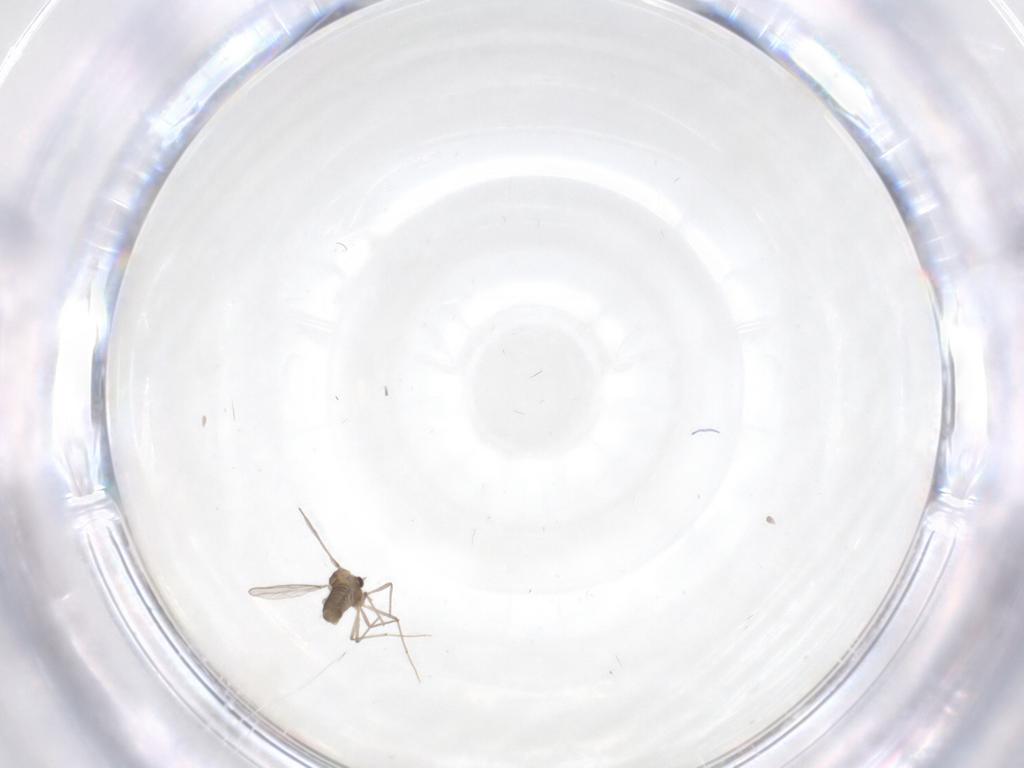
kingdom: Animalia
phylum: Arthropoda
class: Insecta
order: Diptera
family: Chironomidae
